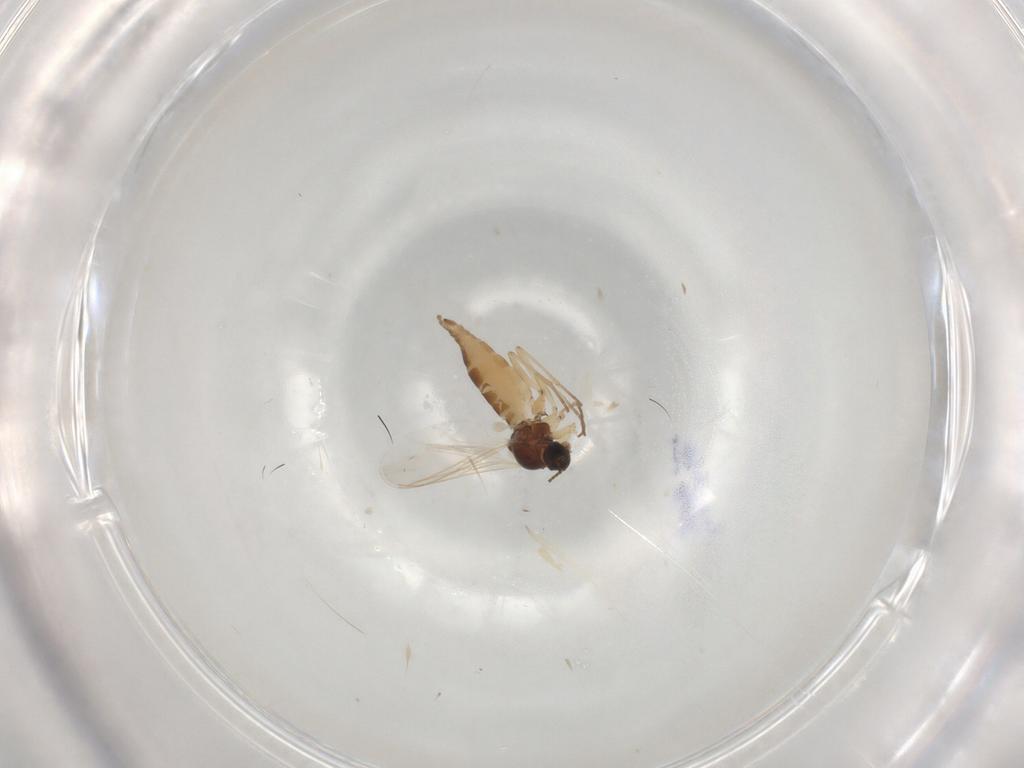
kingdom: Animalia
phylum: Arthropoda
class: Insecta
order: Diptera
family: Sciaridae
